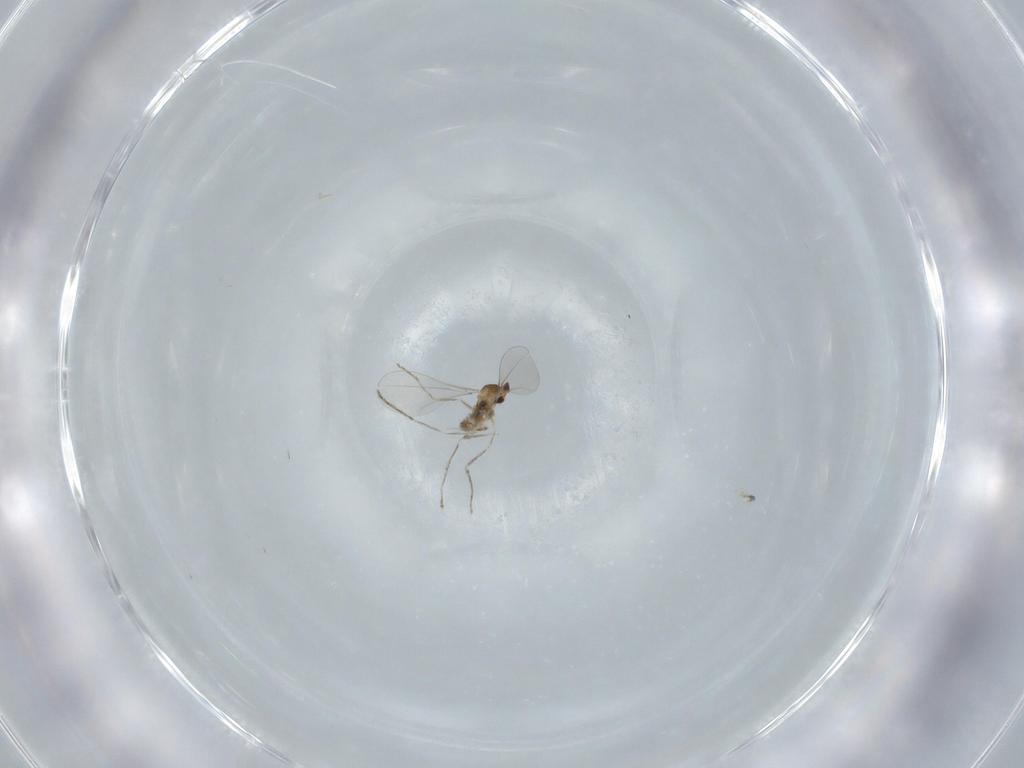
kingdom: Animalia
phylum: Arthropoda
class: Insecta
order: Diptera
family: Cecidomyiidae
